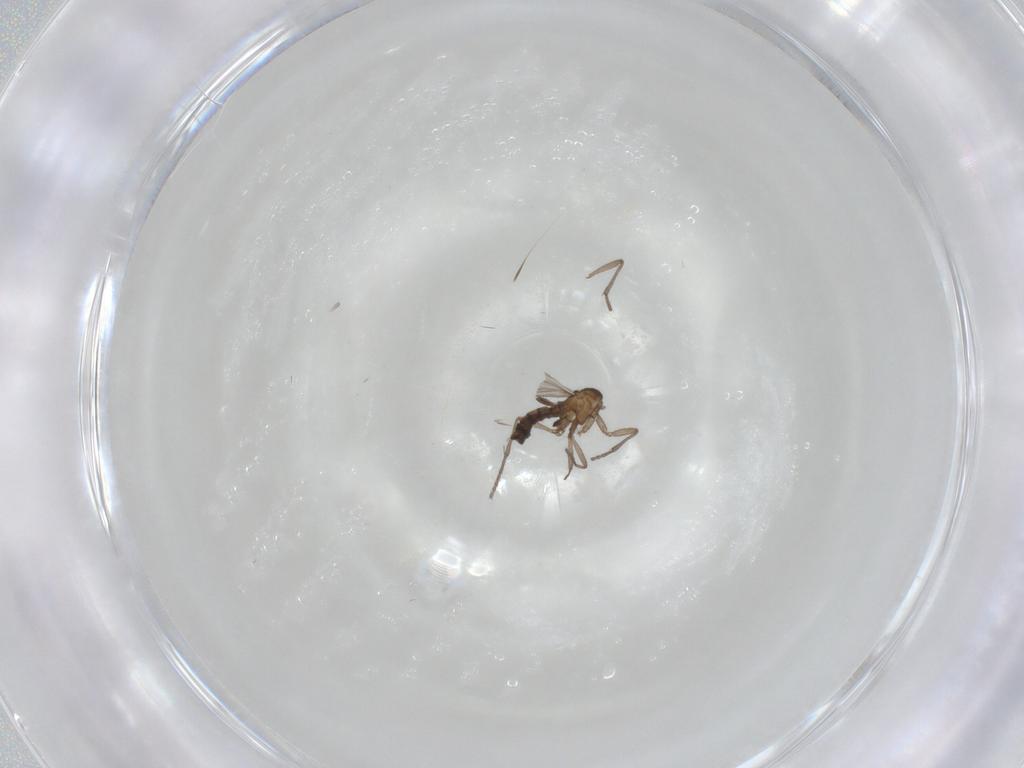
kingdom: Animalia
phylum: Arthropoda
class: Insecta
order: Diptera
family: Sciaridae
